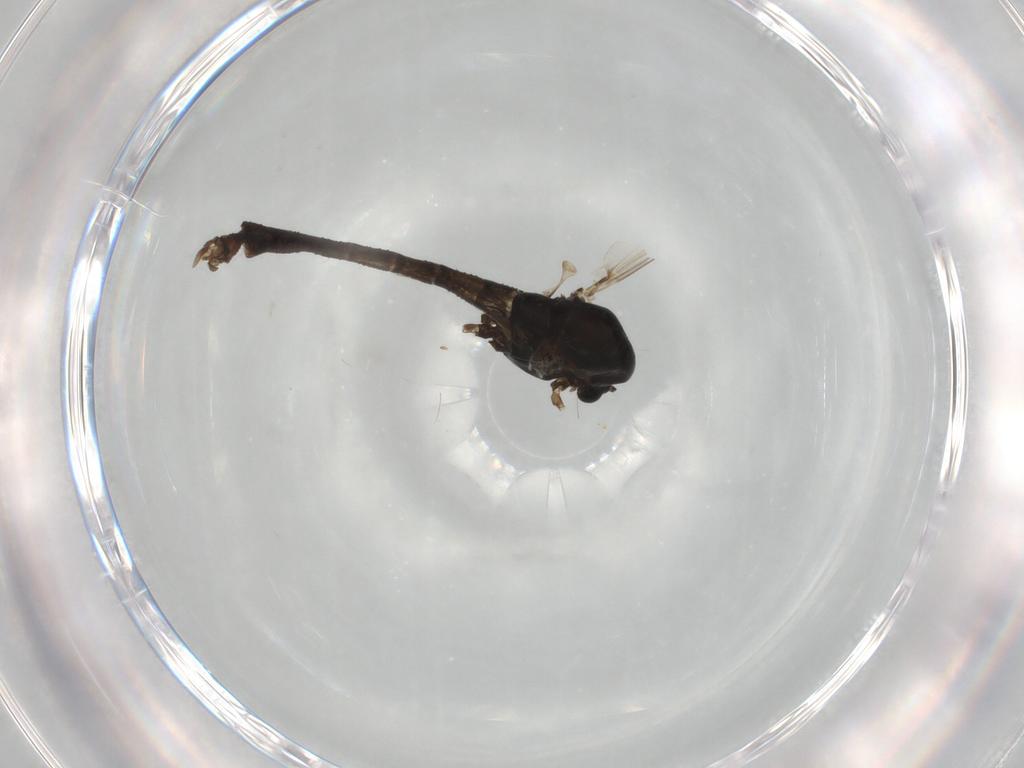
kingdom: Animalia
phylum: Arthropoda
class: Insecta
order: Diptera
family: Chironomidae
